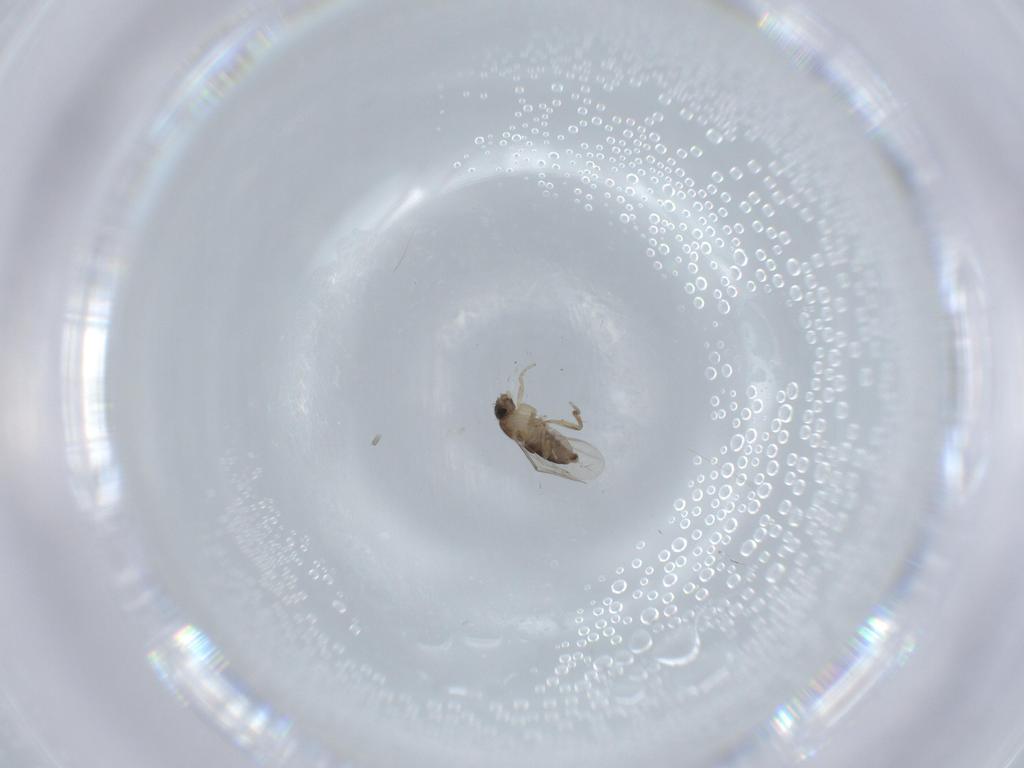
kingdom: Animalia
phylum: Arthropoda
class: Insecta
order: Diptera
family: Phoridae
